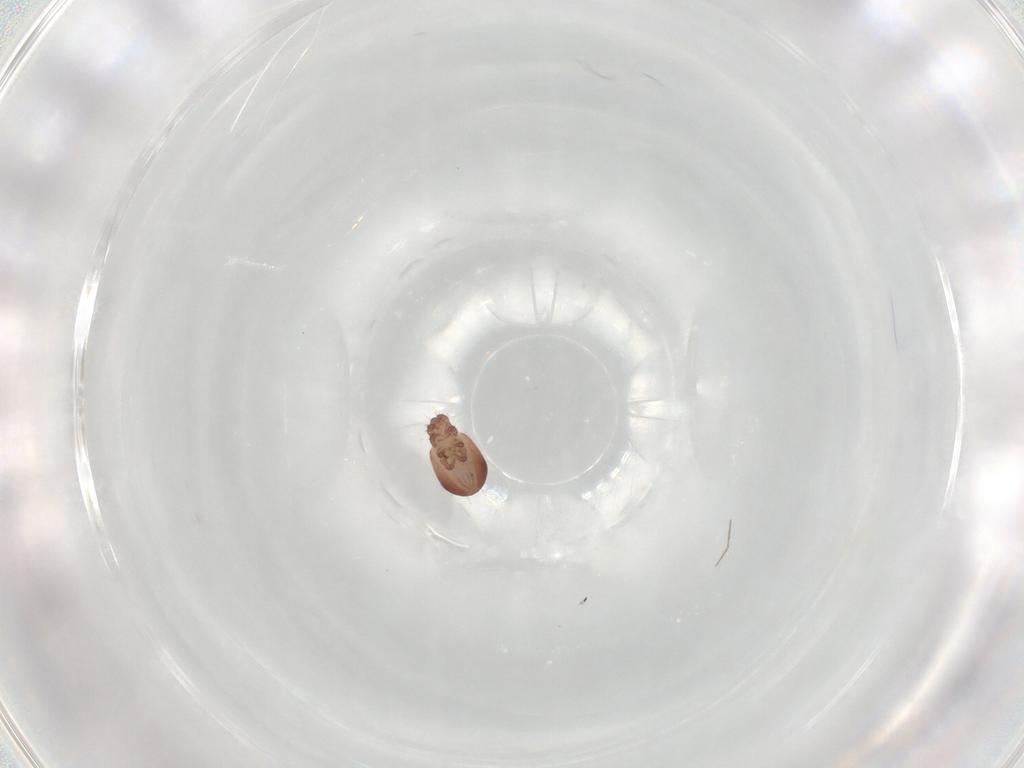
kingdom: Animalia
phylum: Arthropoda
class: Arachnida
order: Sarcoptiformes
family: Trhypochthoniidae
